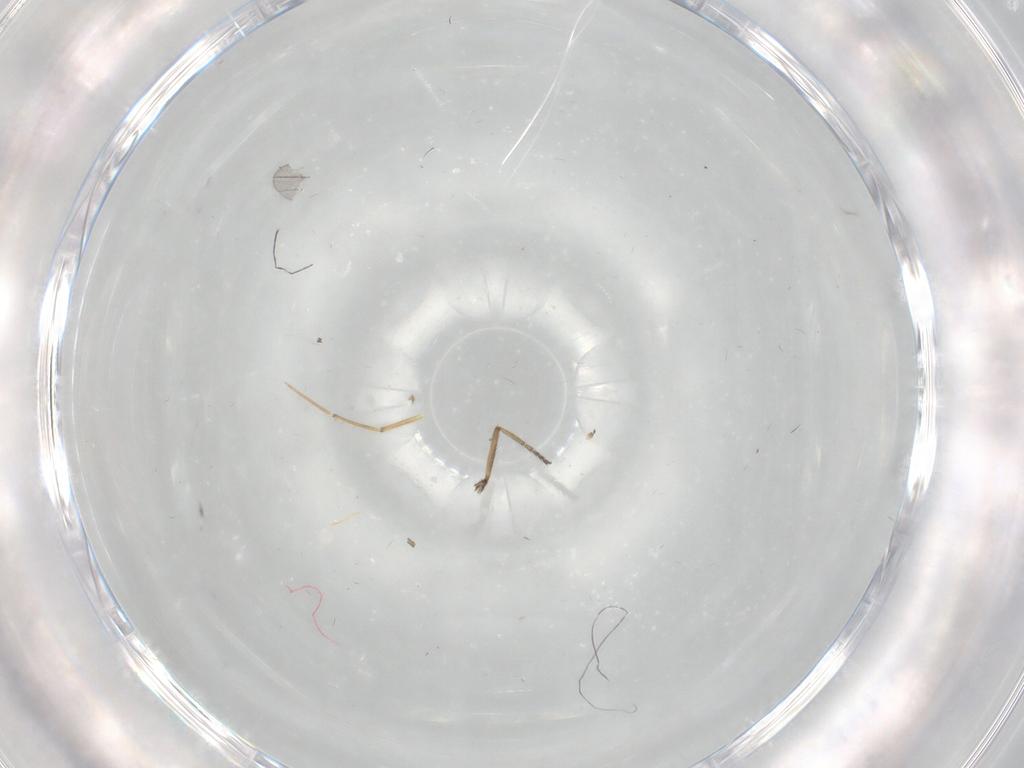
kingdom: Animalia
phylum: Arthropoda
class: Insecta
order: Diptera
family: Ceratopogonidae
